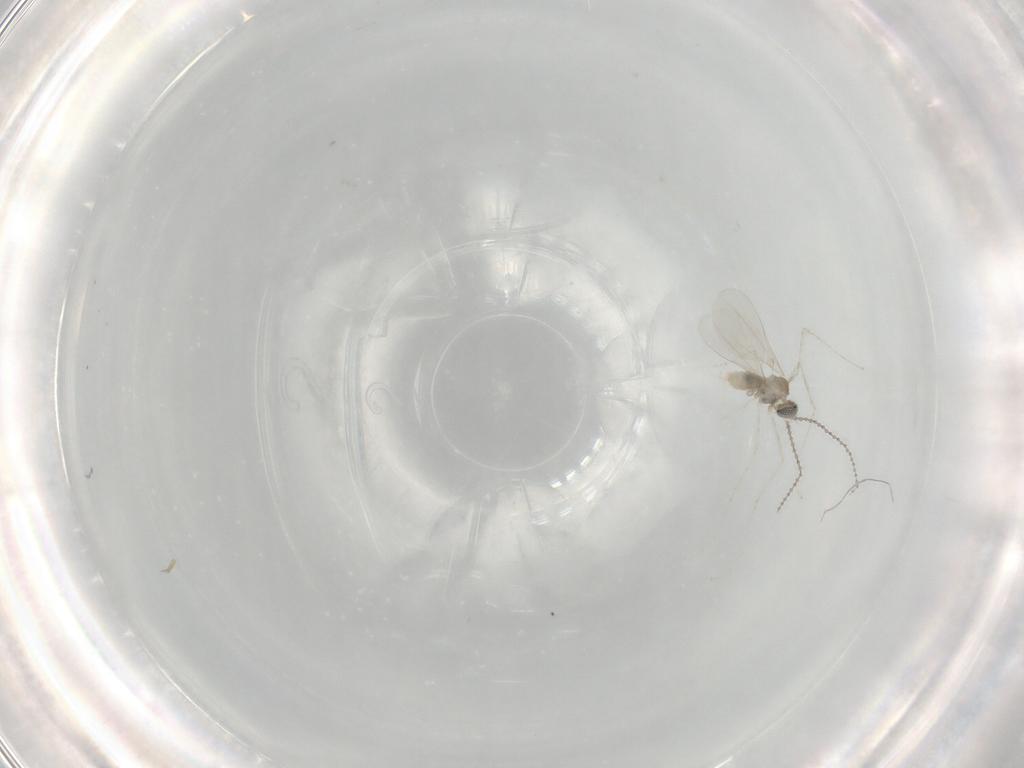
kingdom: Animalia
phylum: Arthropoda
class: Insecta
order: Diptera
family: Cecidomyiidae
